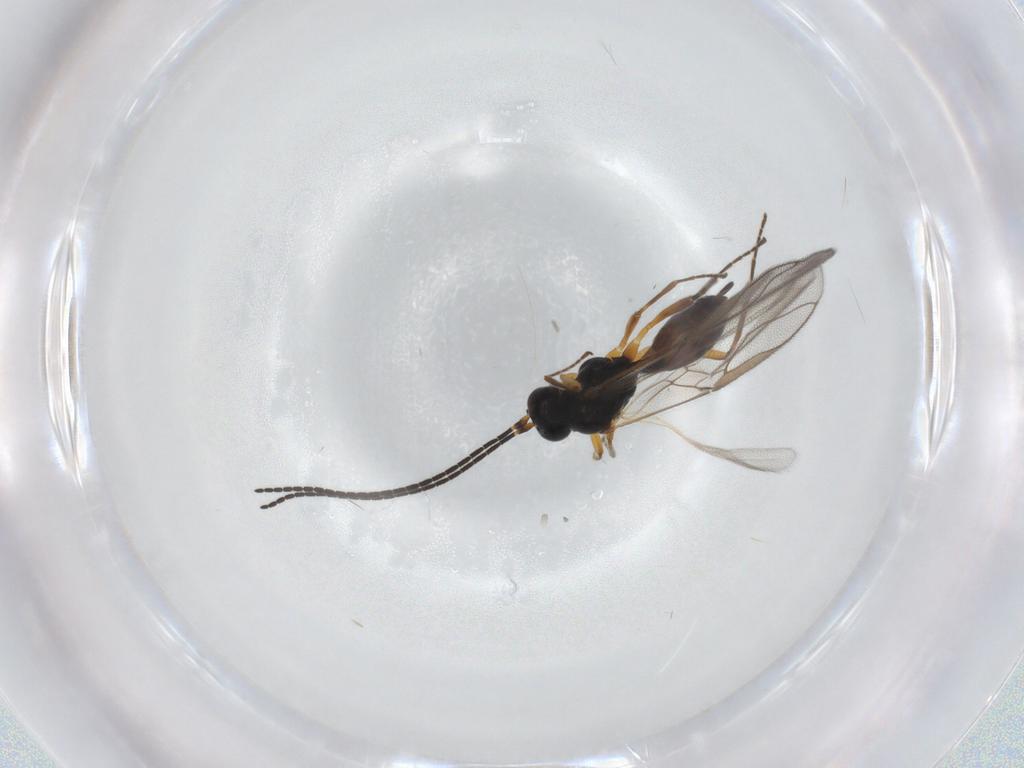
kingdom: Animalia
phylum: Arthropoda
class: Insecta
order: Hymenoptera
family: Braconidae
